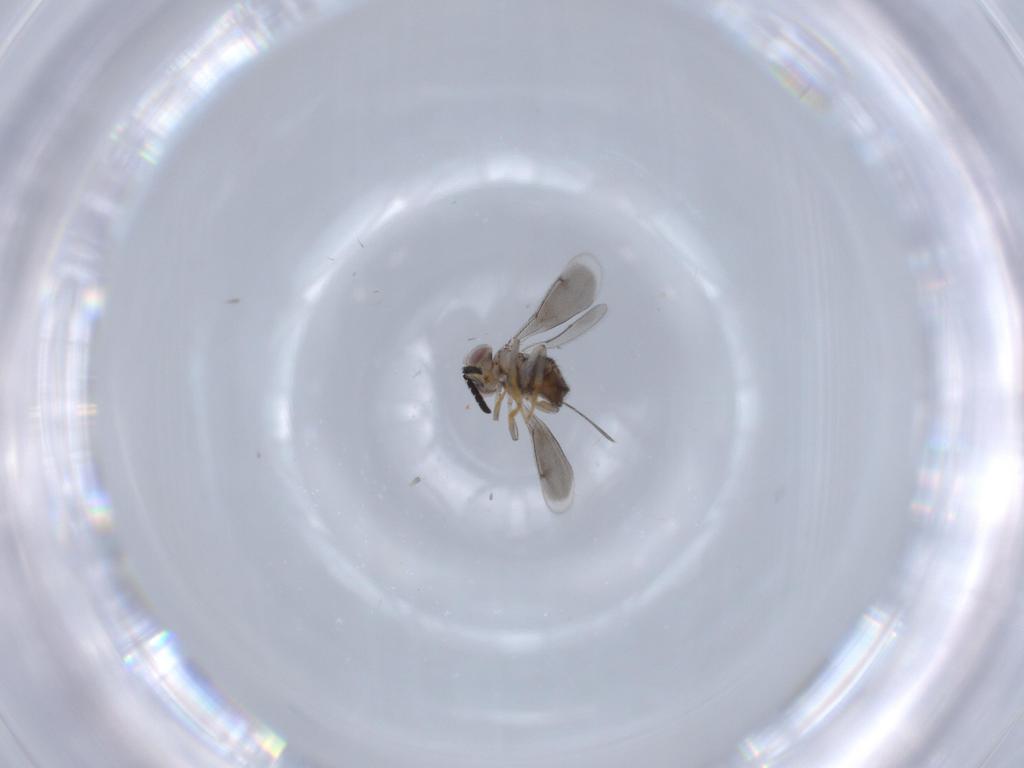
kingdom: Animalia
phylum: Arthropoda
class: Insecta
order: Hymenoptera
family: Aphelinidae
